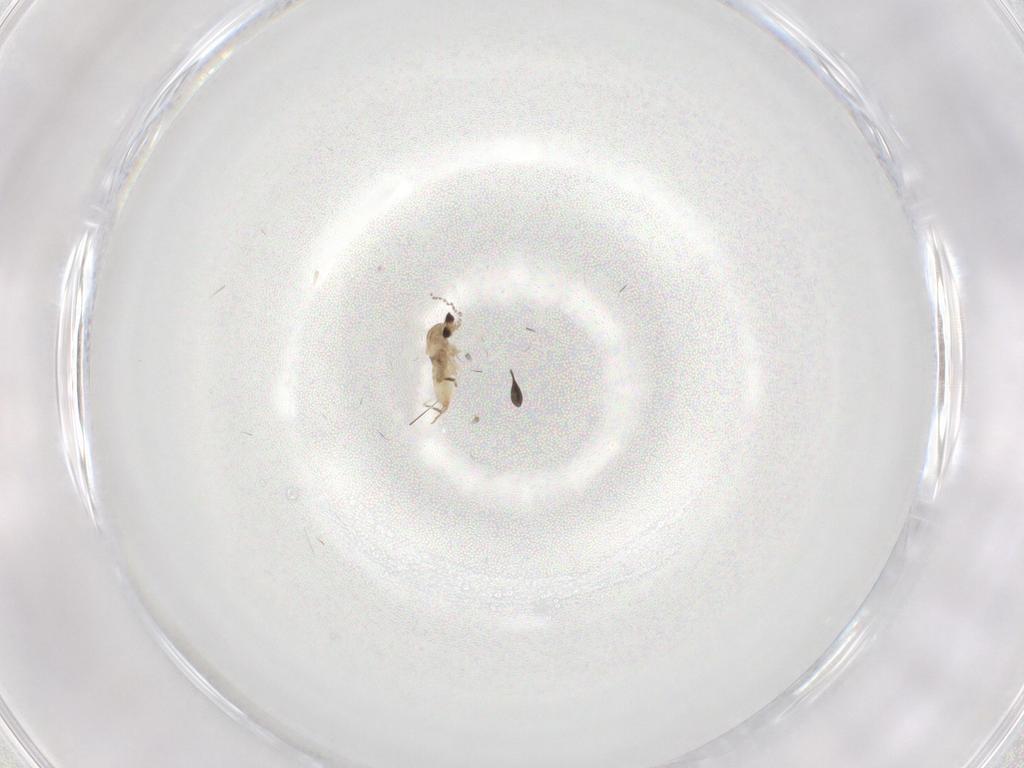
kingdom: Animalia
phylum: Arthropoda
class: Insecta
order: Diptera
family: Cecidomyiidae
